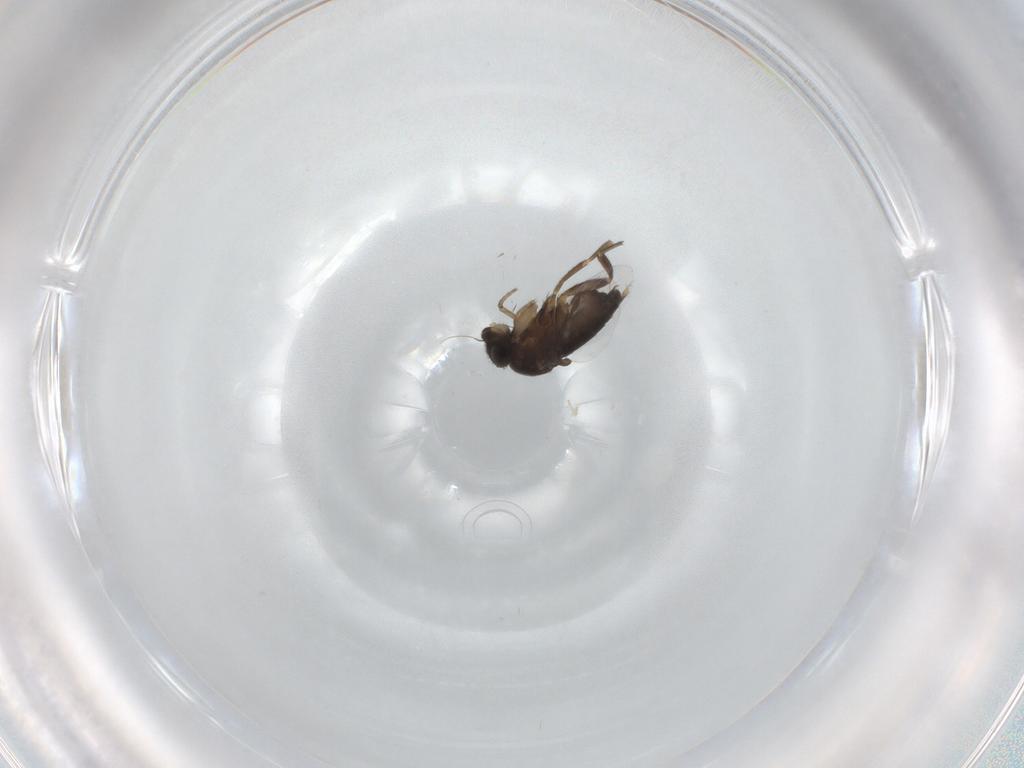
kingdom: Animalia
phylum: Arthropoda
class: Insecta
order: Diptera
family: Phoridae
